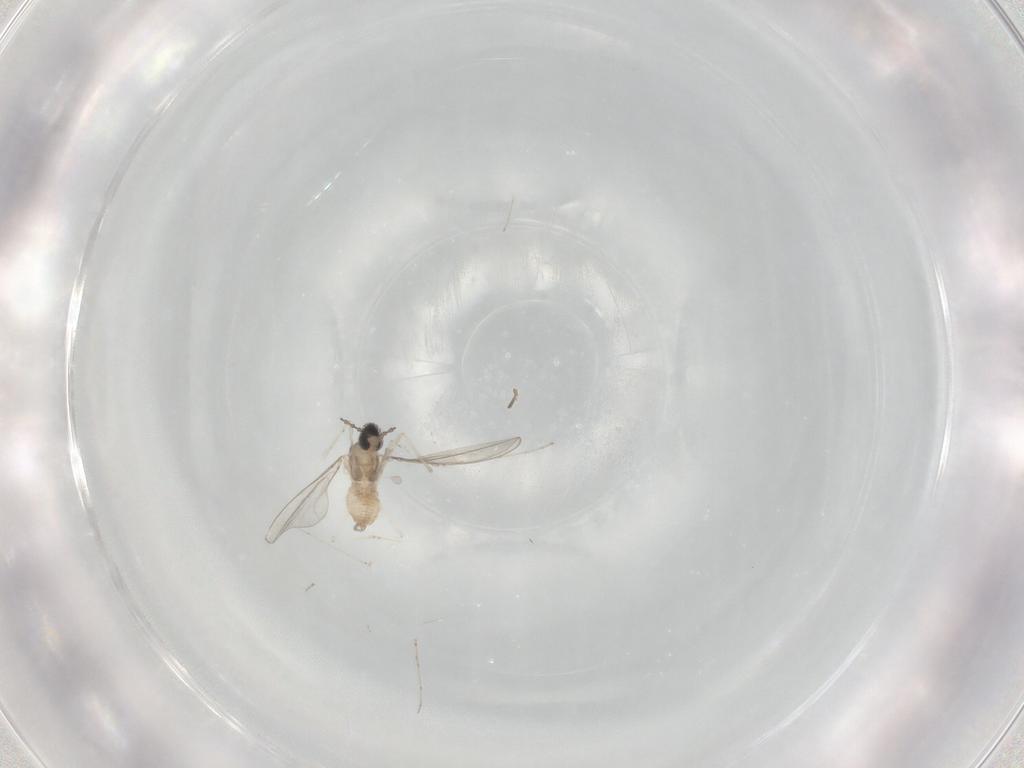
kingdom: Animalia
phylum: Arthropoda
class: Insecta
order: Diptera
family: Cecidomyiidae
